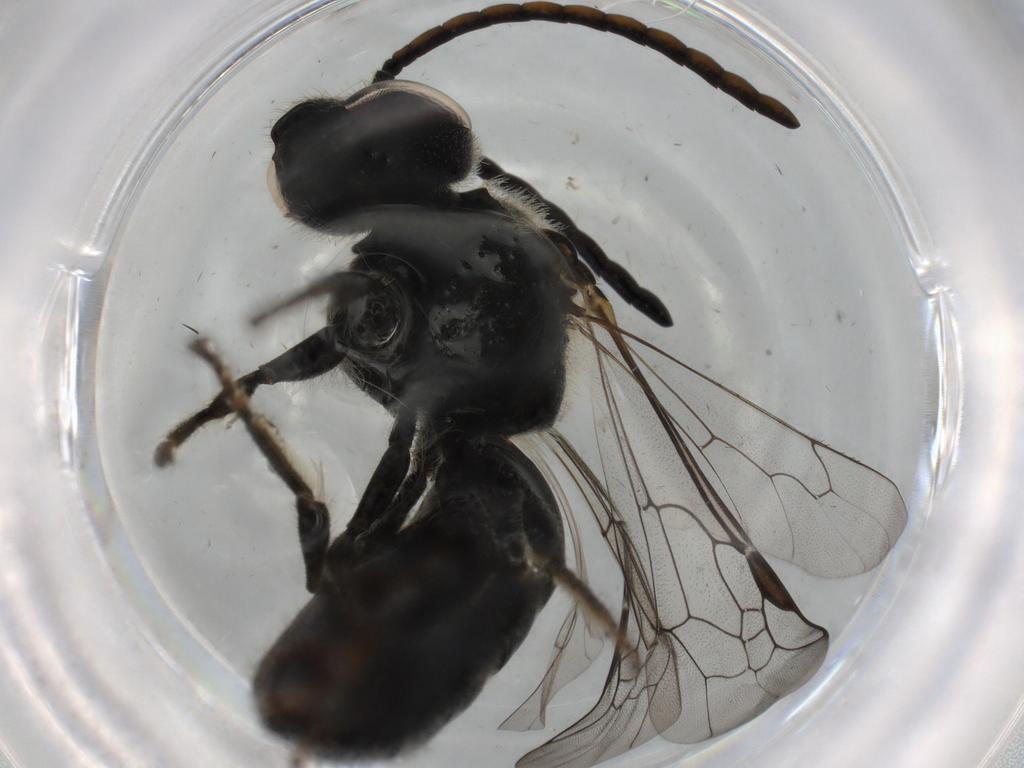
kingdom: Animalia
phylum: Arthropoda
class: Insecta
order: Hymenoptera
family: Halictidae
